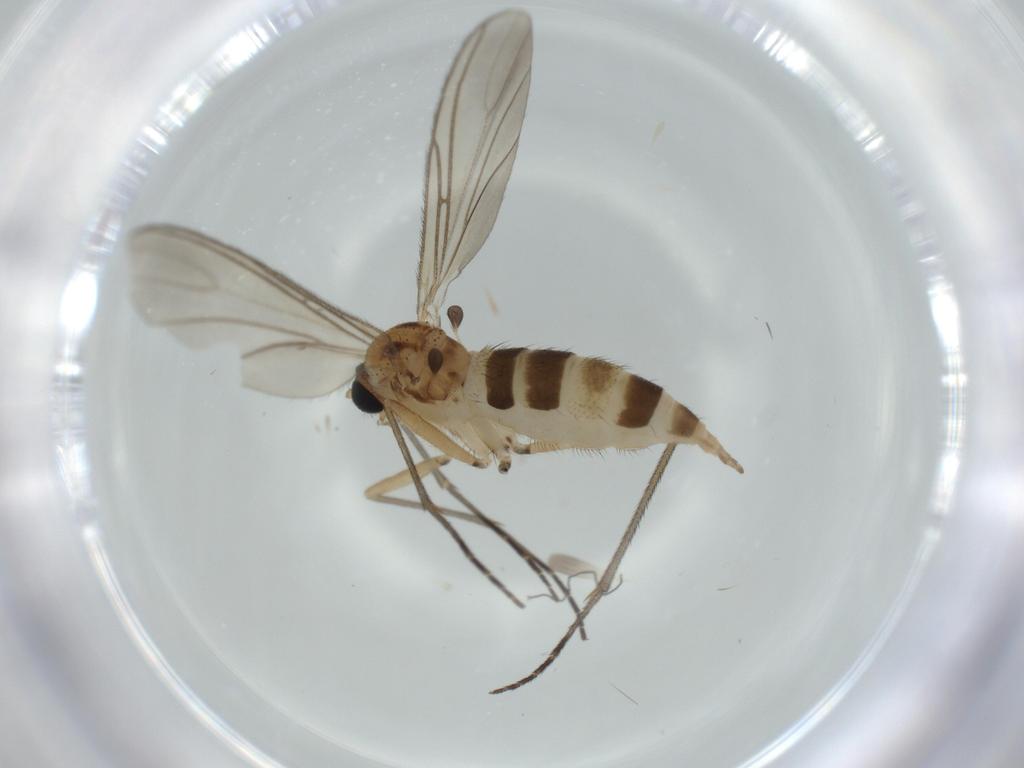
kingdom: Animalia
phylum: Arthropoda
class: Insecta
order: Diptera
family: Sciaridae
